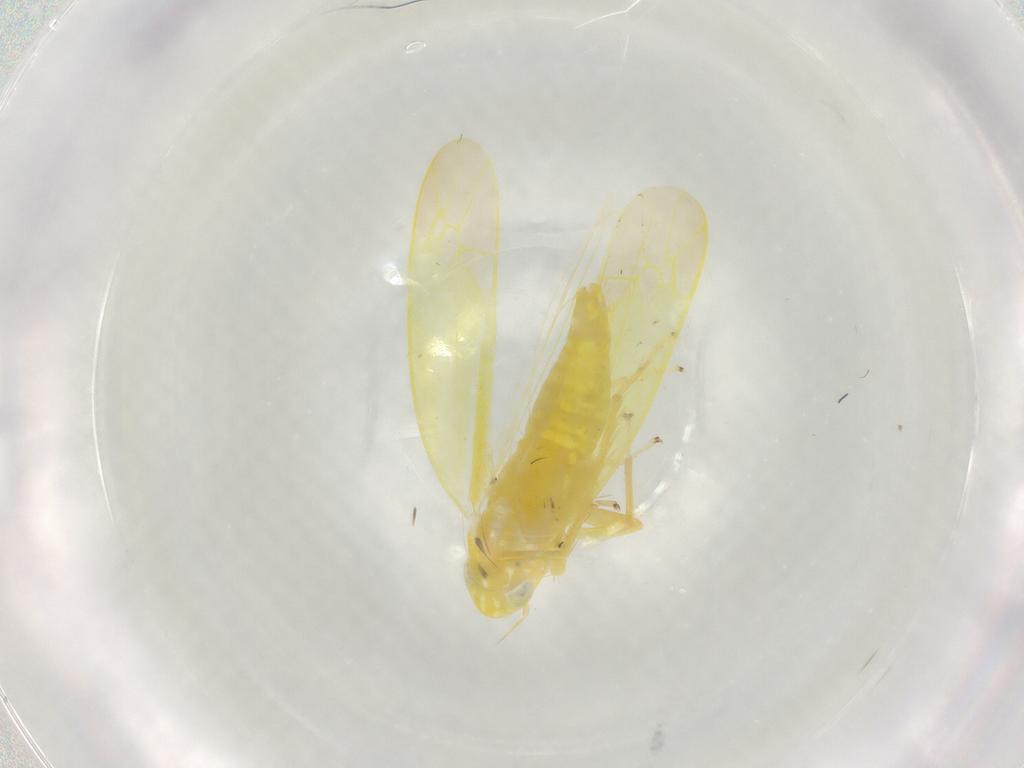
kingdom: Animalia
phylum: Arthropoda
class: Insecta
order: Hemiptera
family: Cicadellidae
